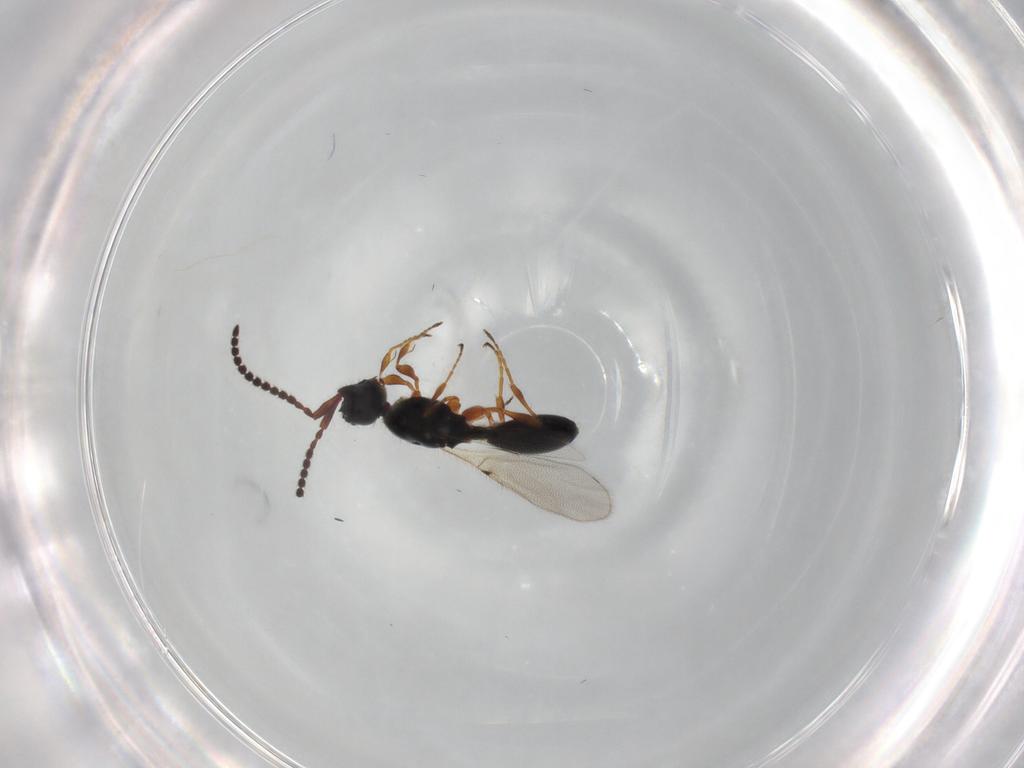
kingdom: Animalia
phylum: Arthropoda
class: Insecta
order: Hymenoptera
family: Diapriidae
